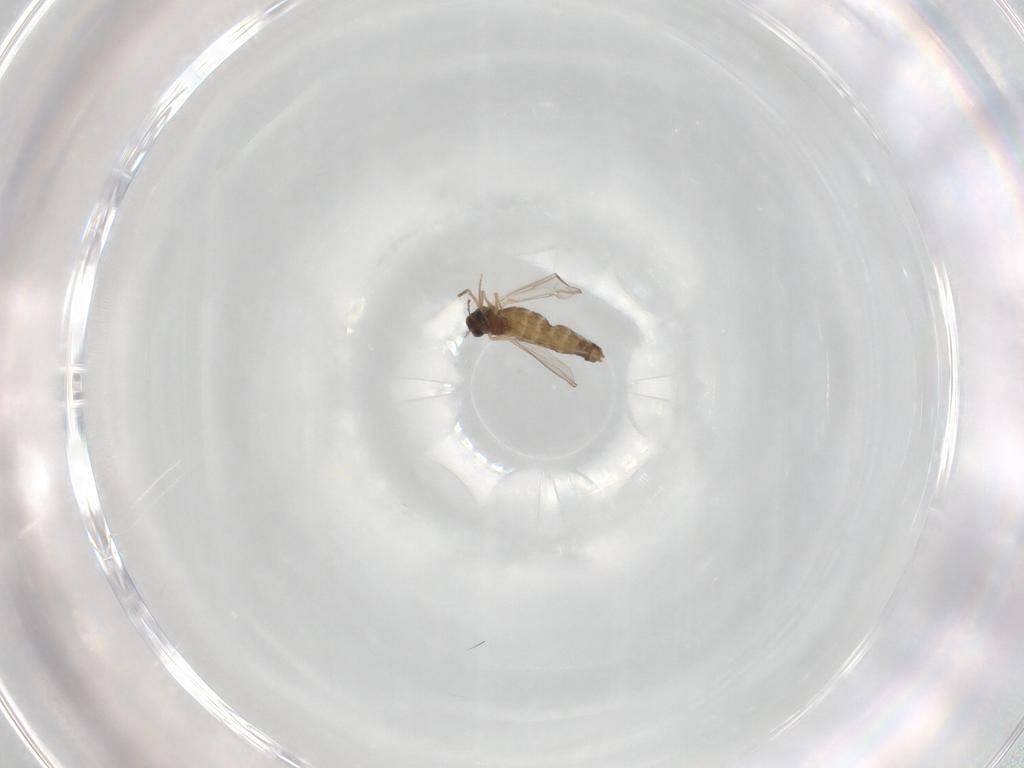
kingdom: Animalia
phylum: Arthropoda
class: Insecta
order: Diptera
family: Chironomidae
